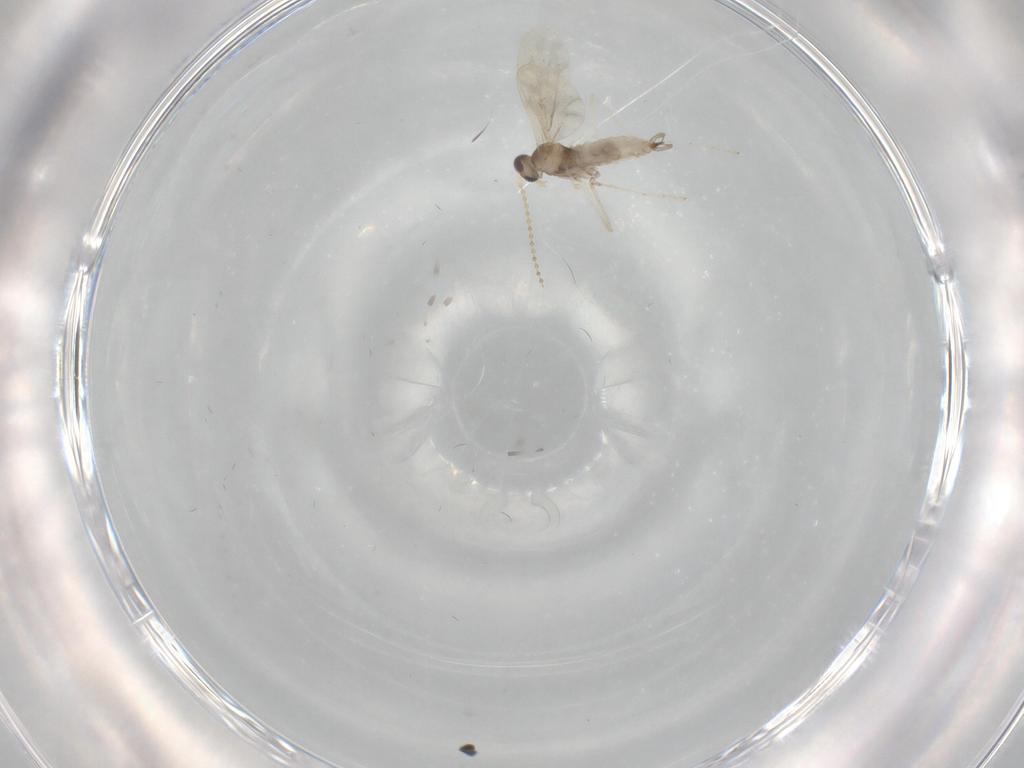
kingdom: Animalia
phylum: Arthropoda
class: Insecta
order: Diptera
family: Cecidomyiidae
